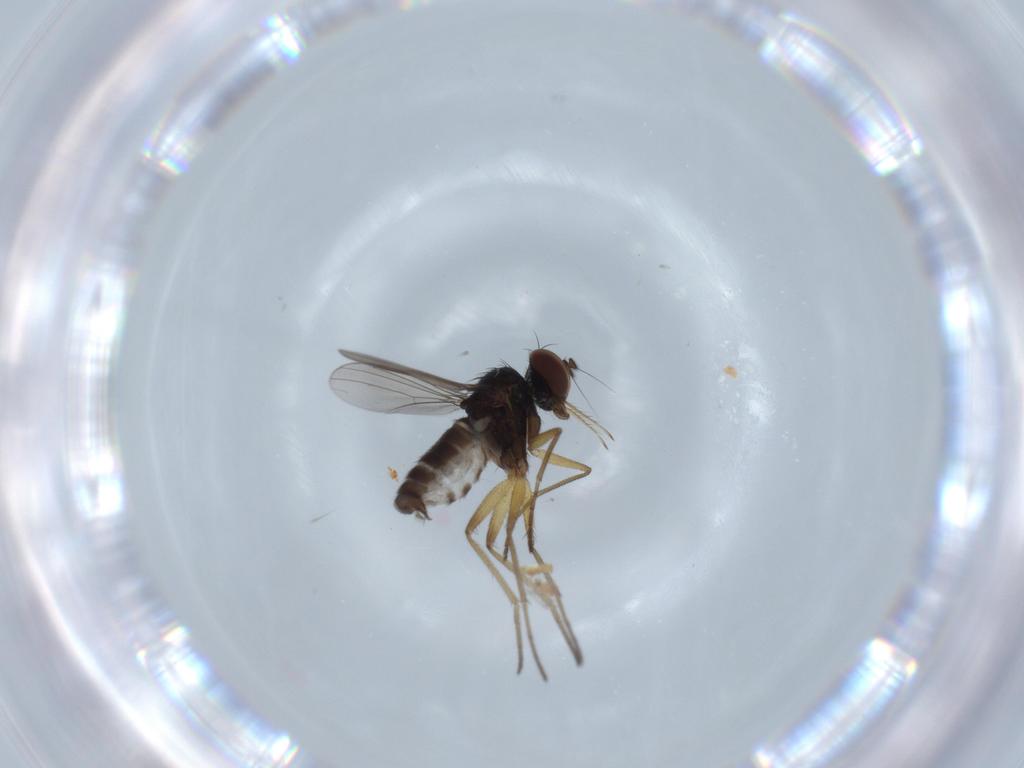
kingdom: Animalia
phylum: Arthropoda
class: Insecta
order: Diptera
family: Dolichopodidae
